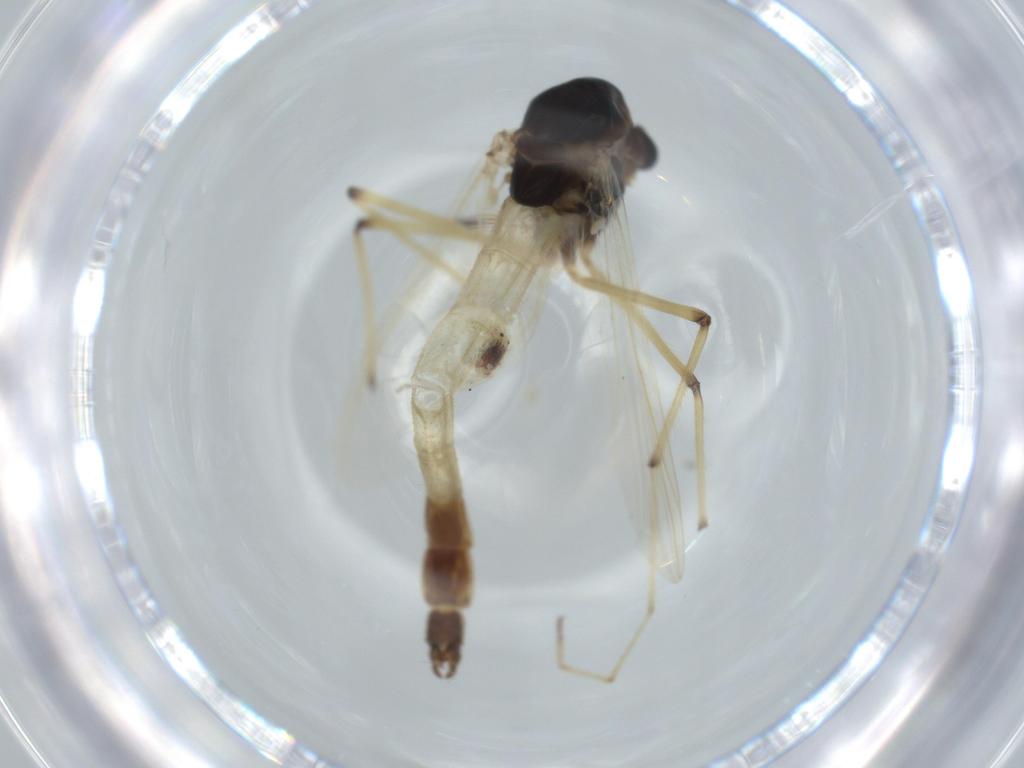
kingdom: Animalia
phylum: Arthropoda
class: Insecta
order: Diptera
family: Chironomidae
